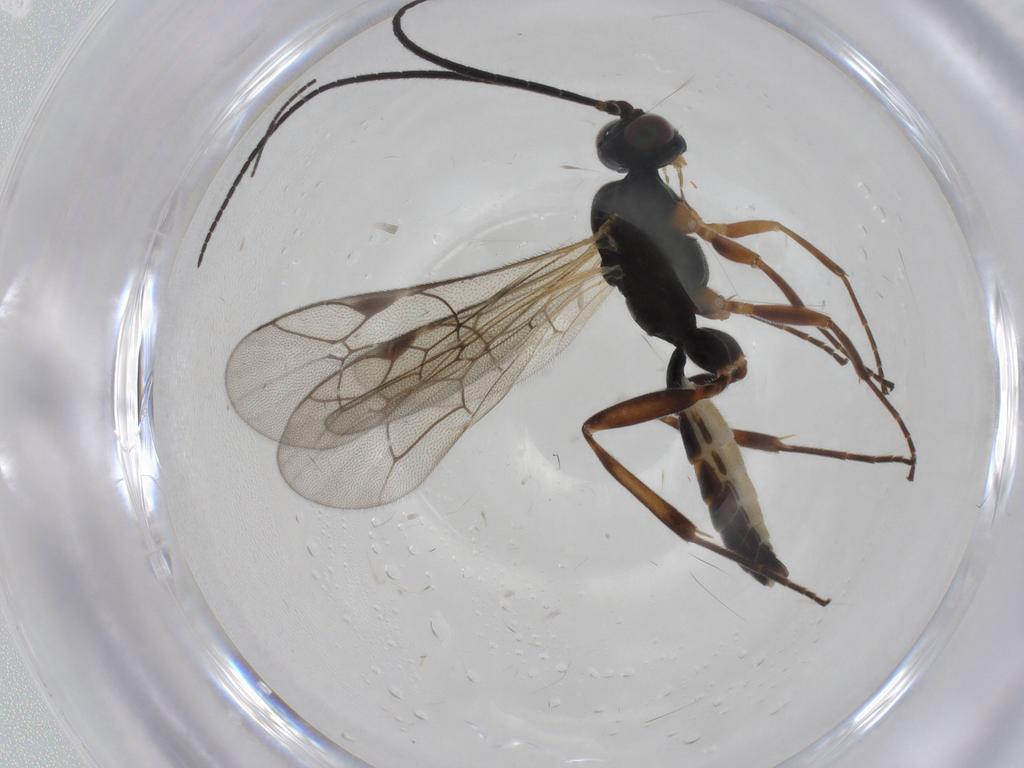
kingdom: Animalia
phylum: Arthropoda
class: Insecta
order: Hymenoptera
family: Ichneumonidae
